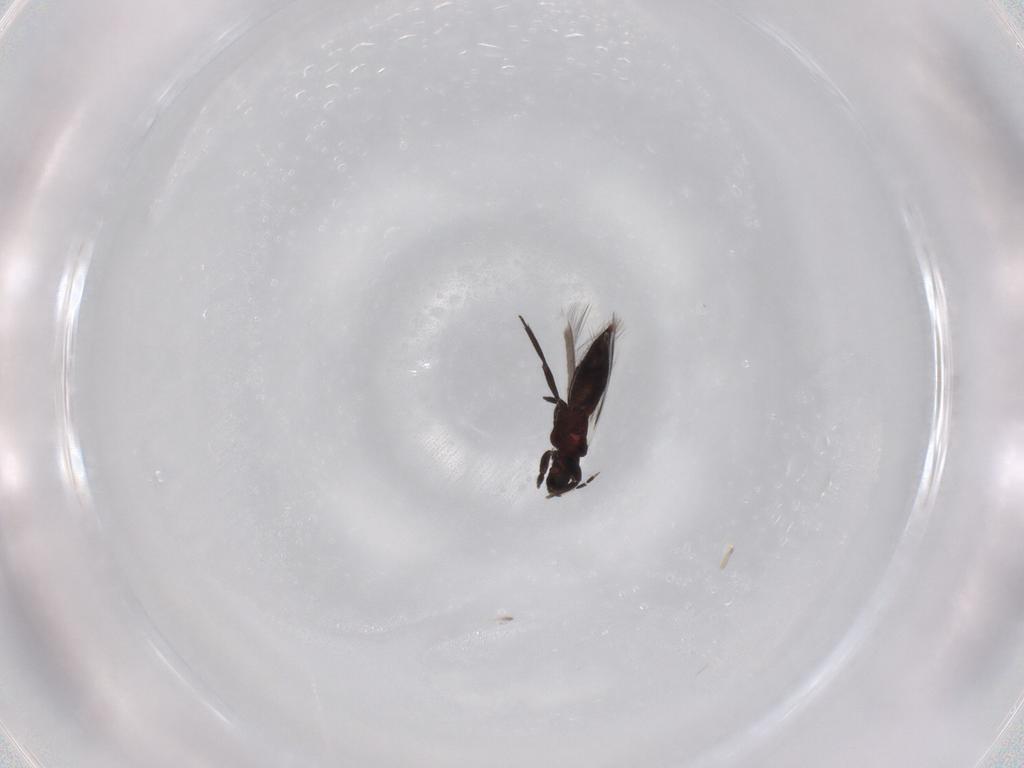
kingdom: Animalia
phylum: Arthropoda
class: Insecta
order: Thysanoptera
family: Aeolothripidae
